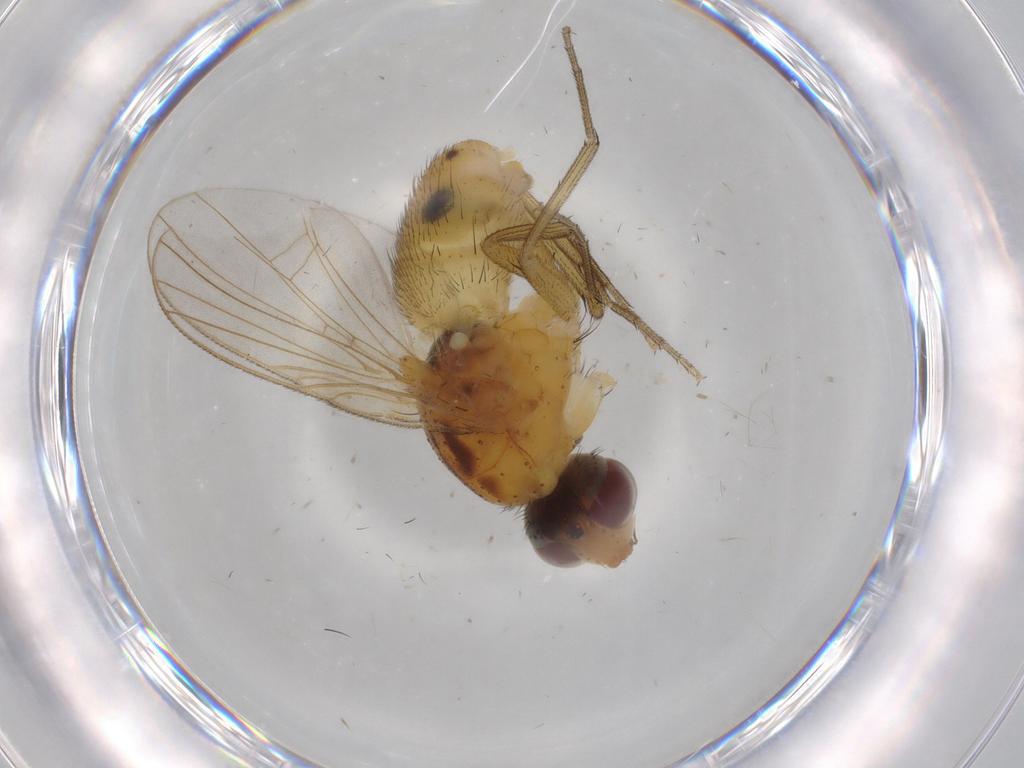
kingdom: Animalia
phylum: Arthropoda
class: Insecta
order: Diptera
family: Muscidae
